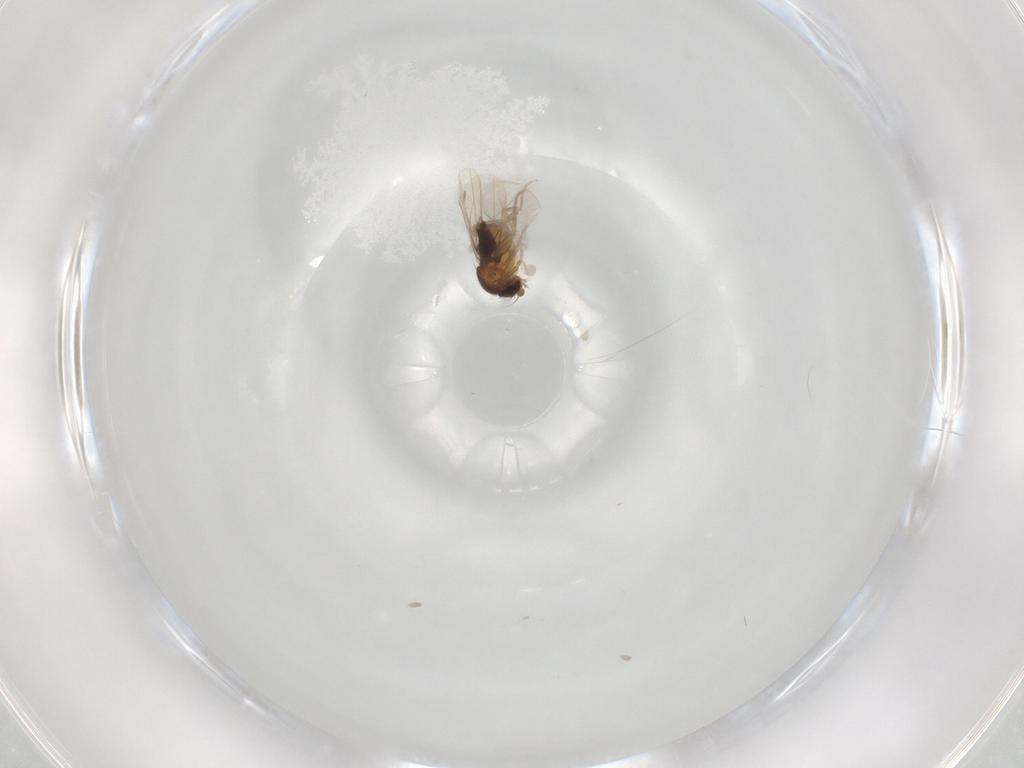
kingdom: Animalia
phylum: Arthropoda
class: Insecta
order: Diptera
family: Cecidomyiidae
